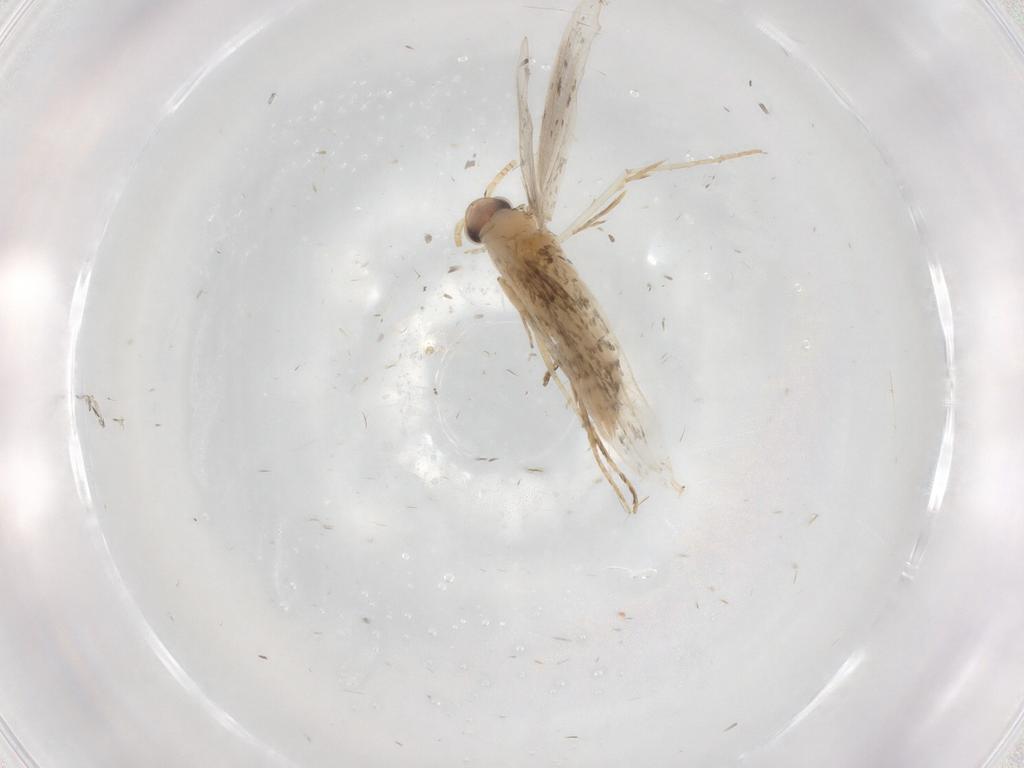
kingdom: Animalia
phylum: Arthropoda
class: Insecta
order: Lepidoptera
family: Tineidae
